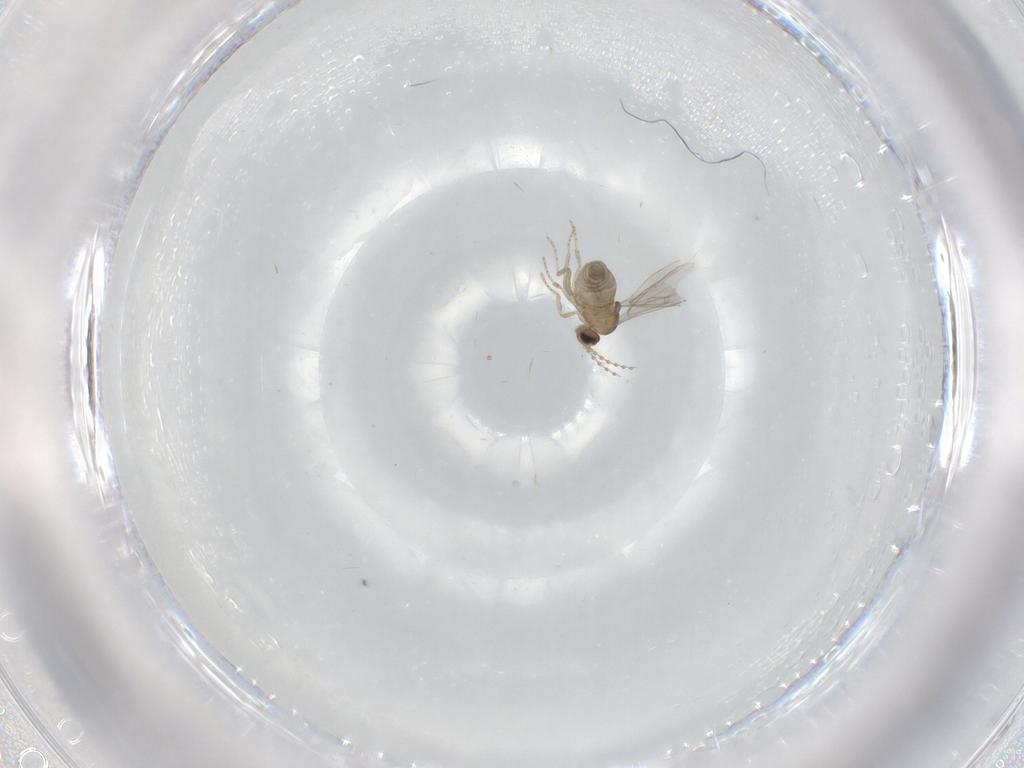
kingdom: Animalia
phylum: Arthropoda
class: Insecta
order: Diptera
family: Cecidomyiidae
